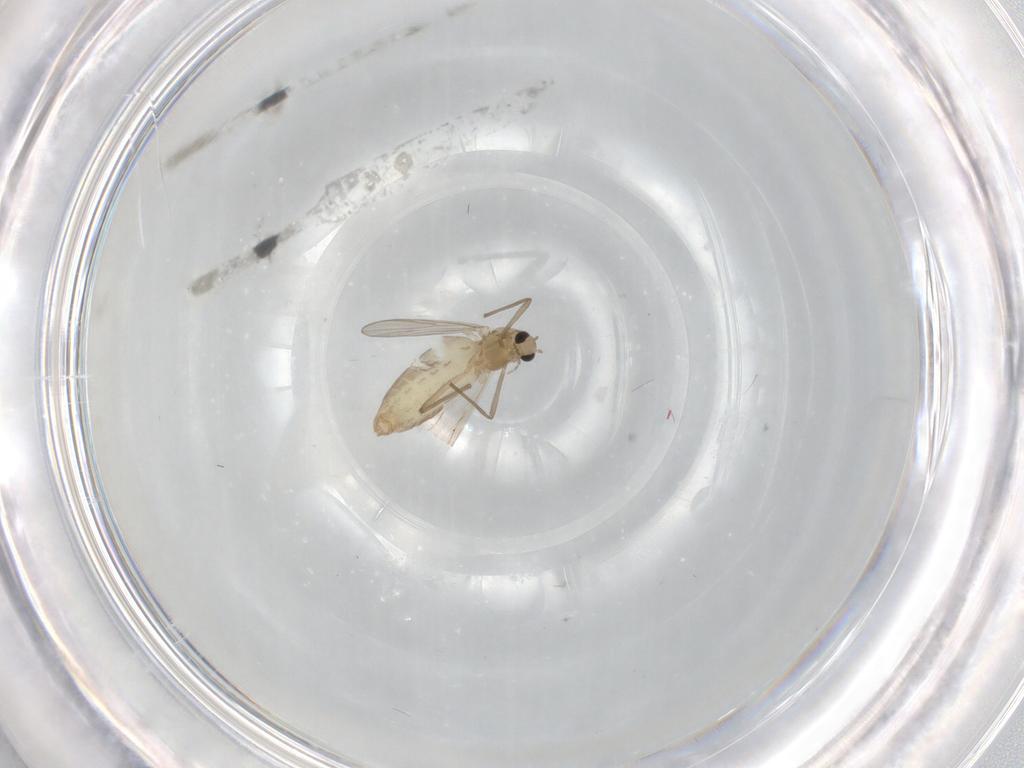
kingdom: Animalia
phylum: Arthropoda
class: Insecta
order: Diptera
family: Chironomidae
